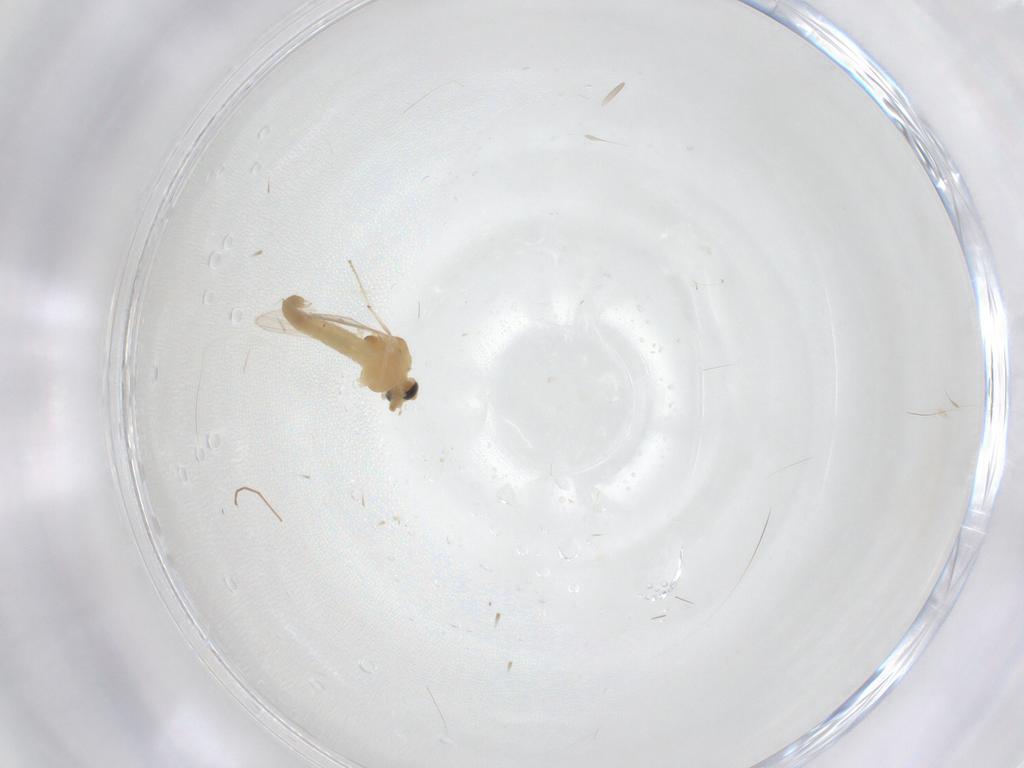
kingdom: Animalia
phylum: Arthropoda
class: Insecta
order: Diptera
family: Chironomidae
